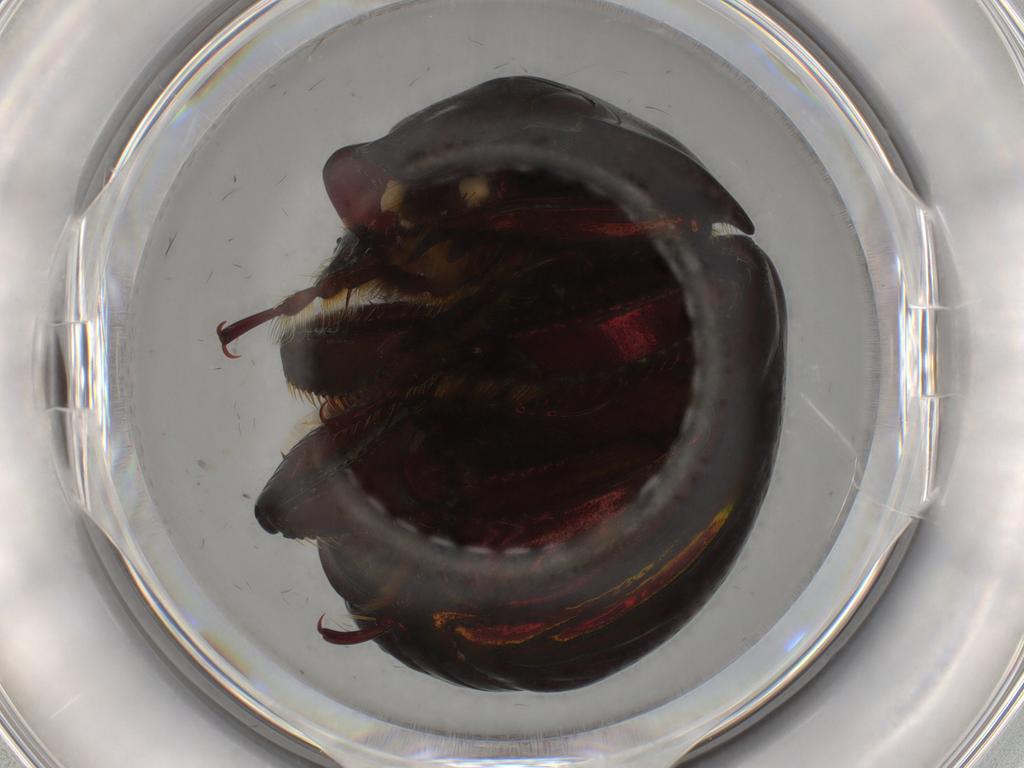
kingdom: Animalia
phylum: Arthropoda
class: Insecta
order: Coleoptera
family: Hybosoridae
